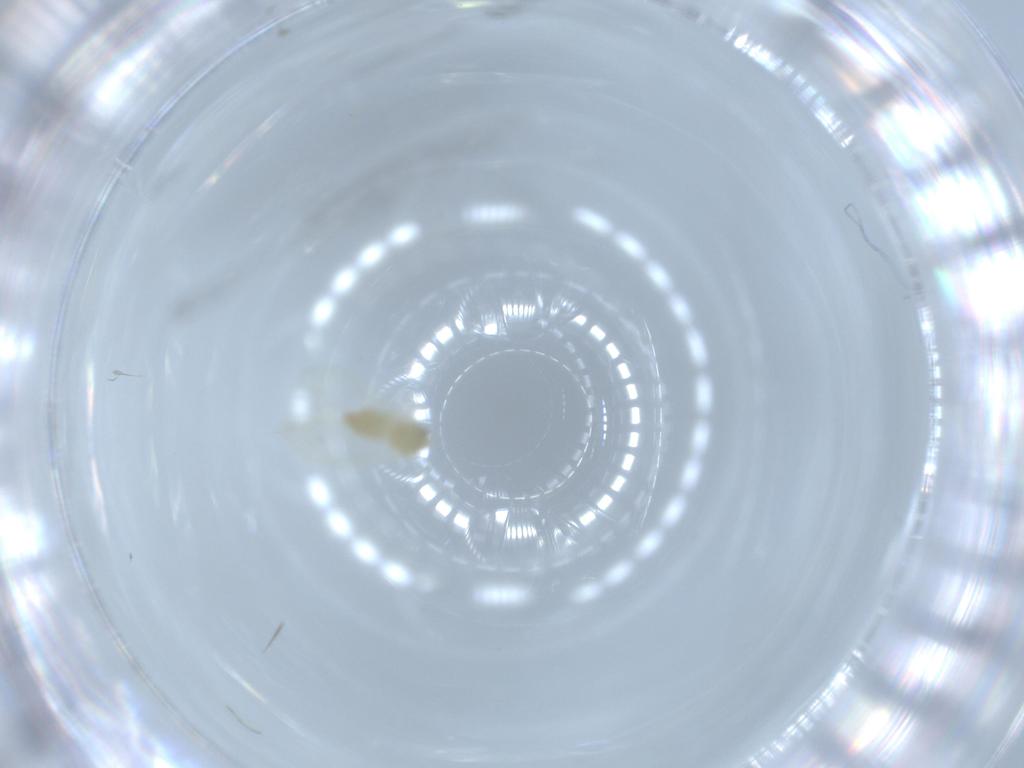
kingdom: Animalia
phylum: Arthropoda
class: Insecta
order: Hemiptera
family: Aleyrodidae
